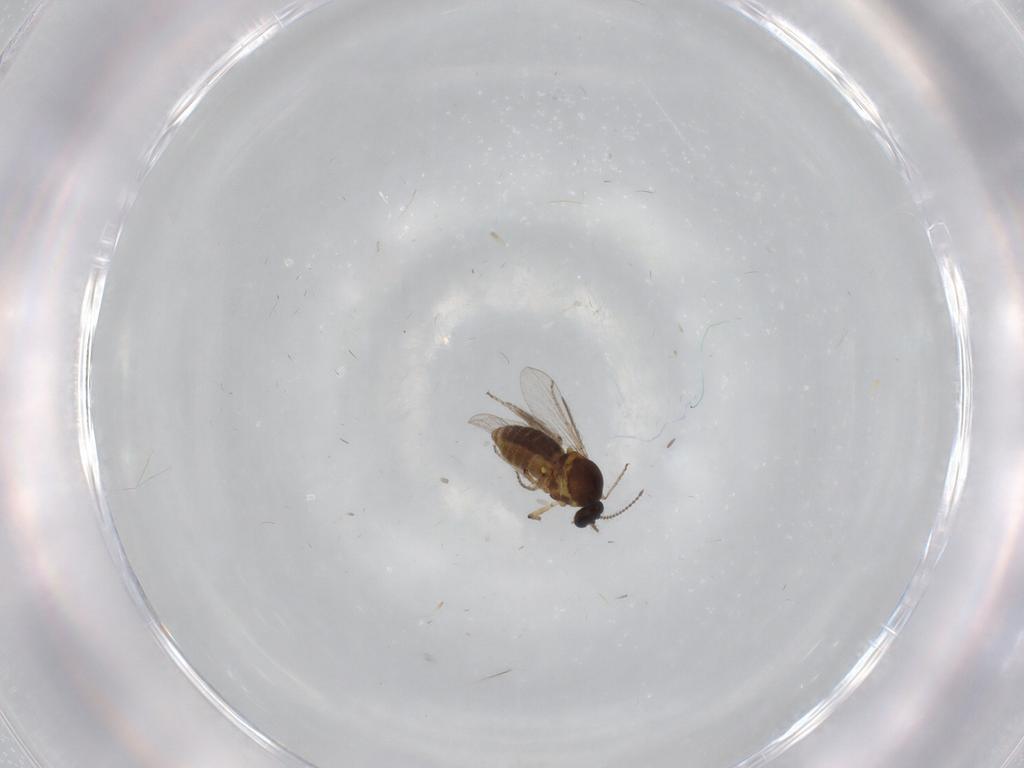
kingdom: Animalia
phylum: Arthropoda
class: Insecta
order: Diptera
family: Ceratopogonidae
